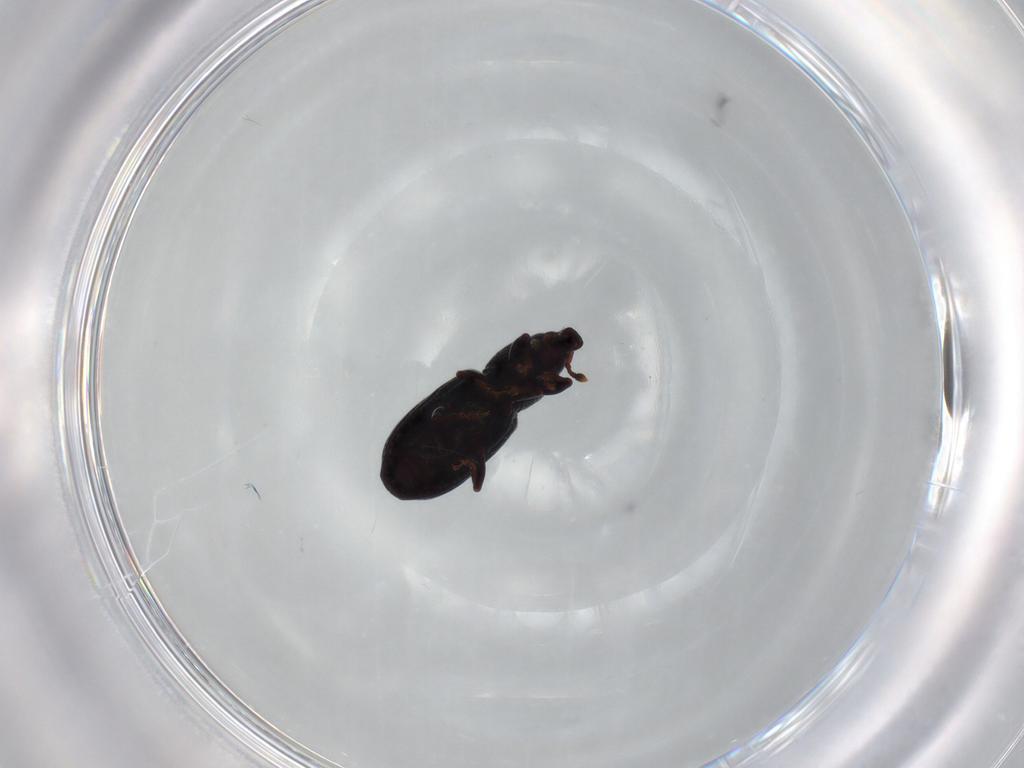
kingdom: Animalia
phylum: Arthropoda
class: Insecta
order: Coleoptera
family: Curculionidae
